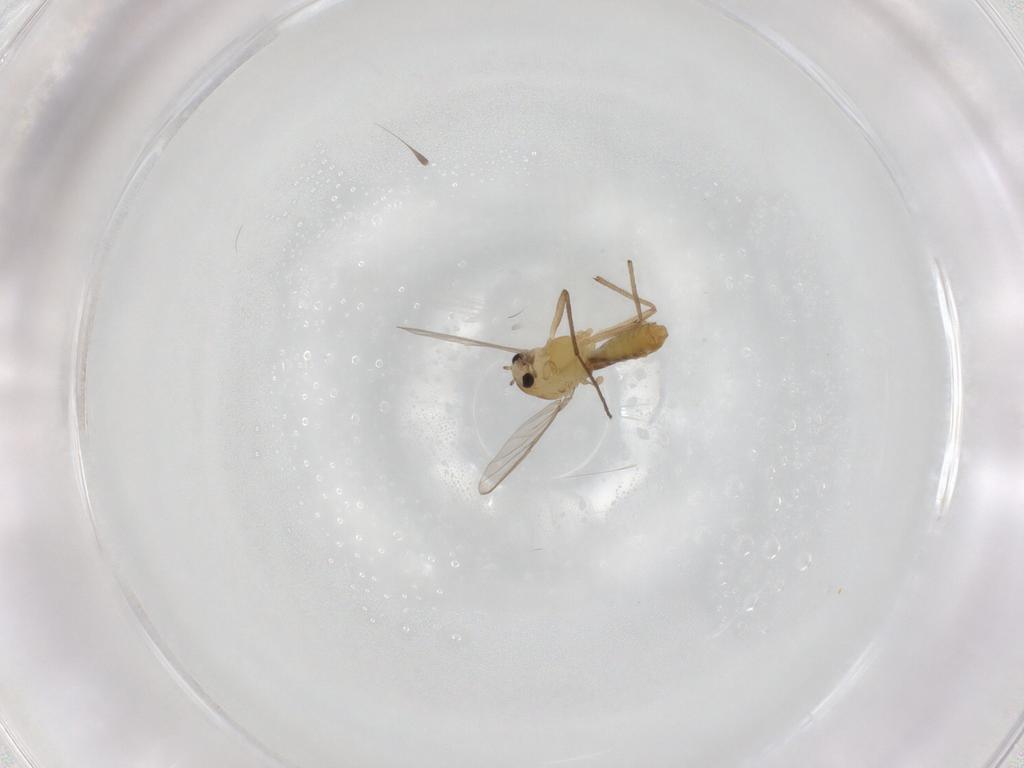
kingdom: Animalia
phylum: Arthropoda
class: Insecta
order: Diptera
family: Chironomidae
